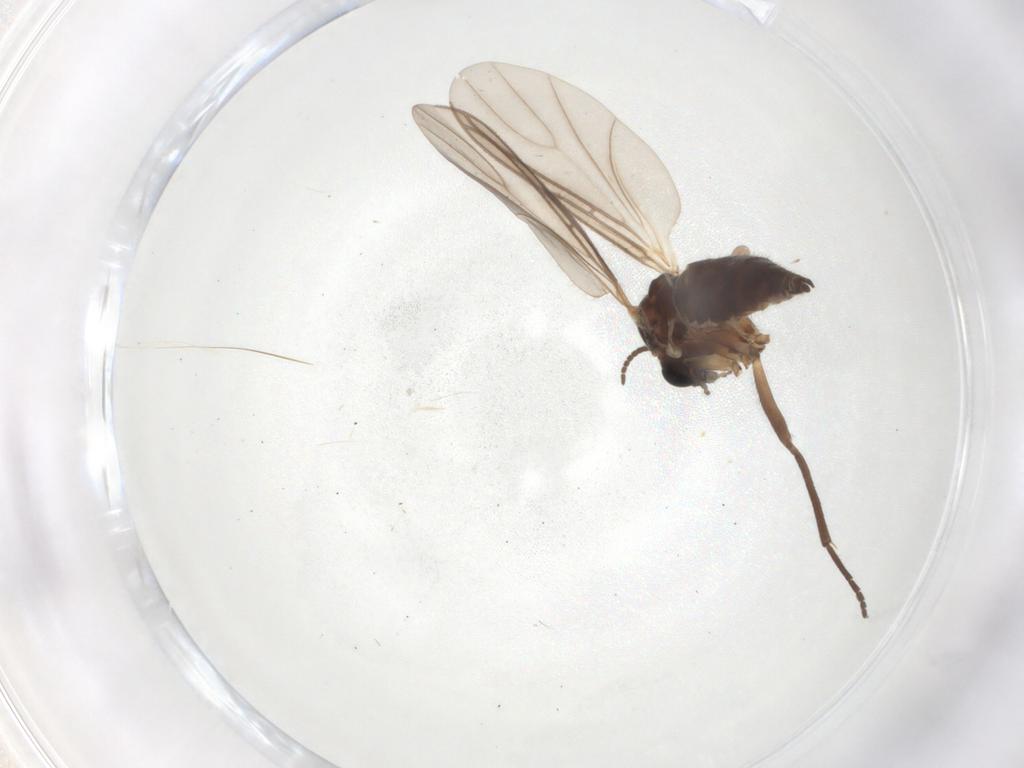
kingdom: Animalia
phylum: Arthropoda
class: Insecta
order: Diptera
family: Sciaridae
